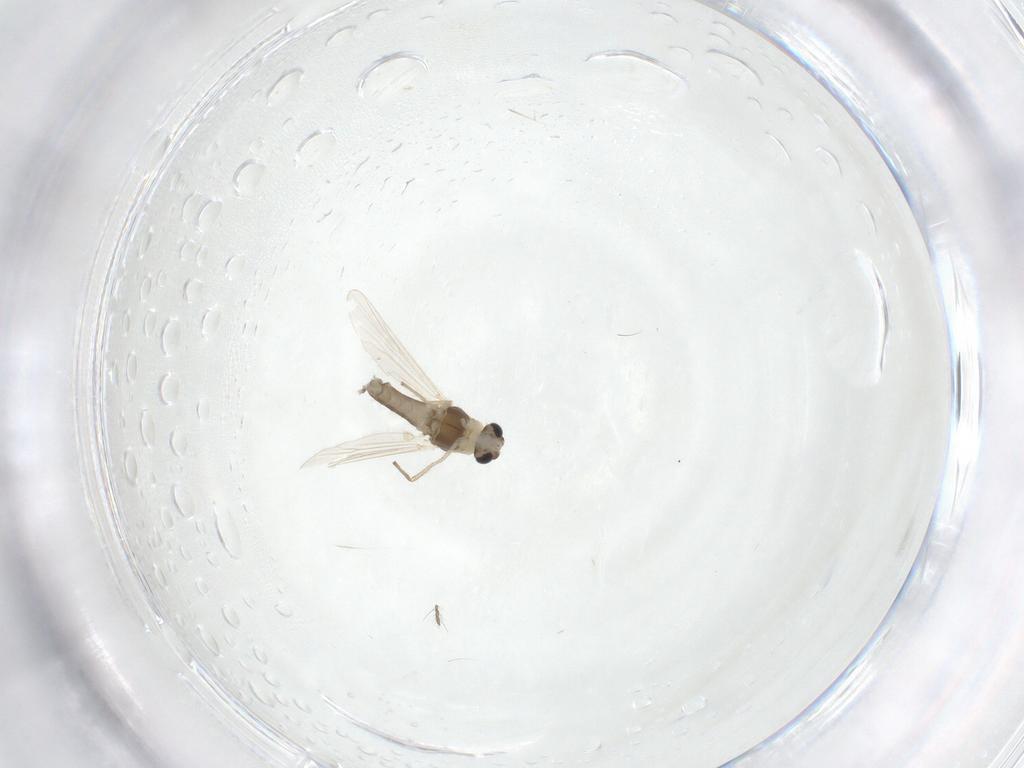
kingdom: Animalia
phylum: Arthropoda
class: Insecta
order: Diptera
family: Chironomidae
